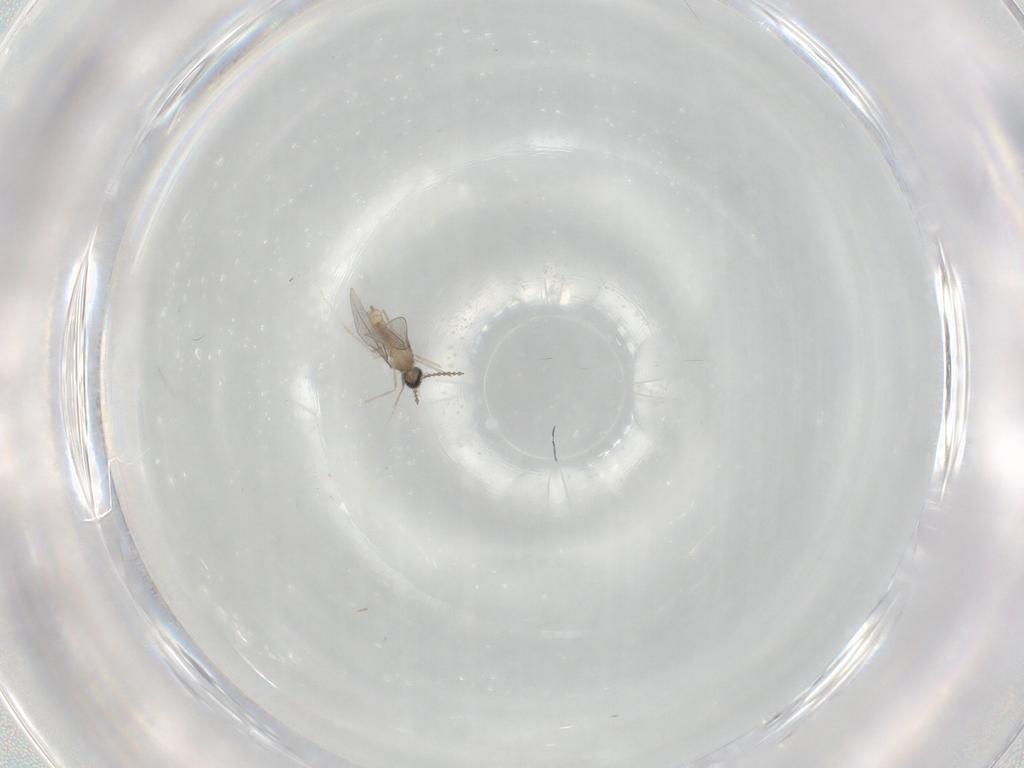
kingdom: Animalia
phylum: Arthropoda
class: Insecta
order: Diptera
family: Cecidomyiidae
